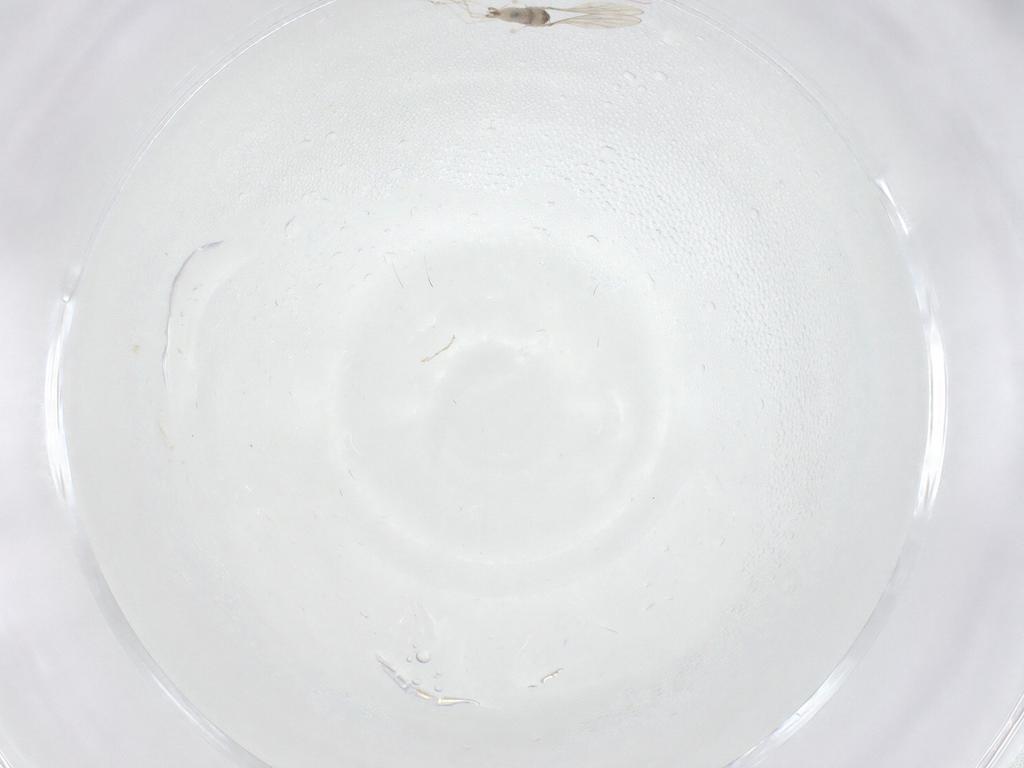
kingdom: Animalia
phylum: Arthropoda
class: Insecta
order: Diptera
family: Cecidomyiidae
